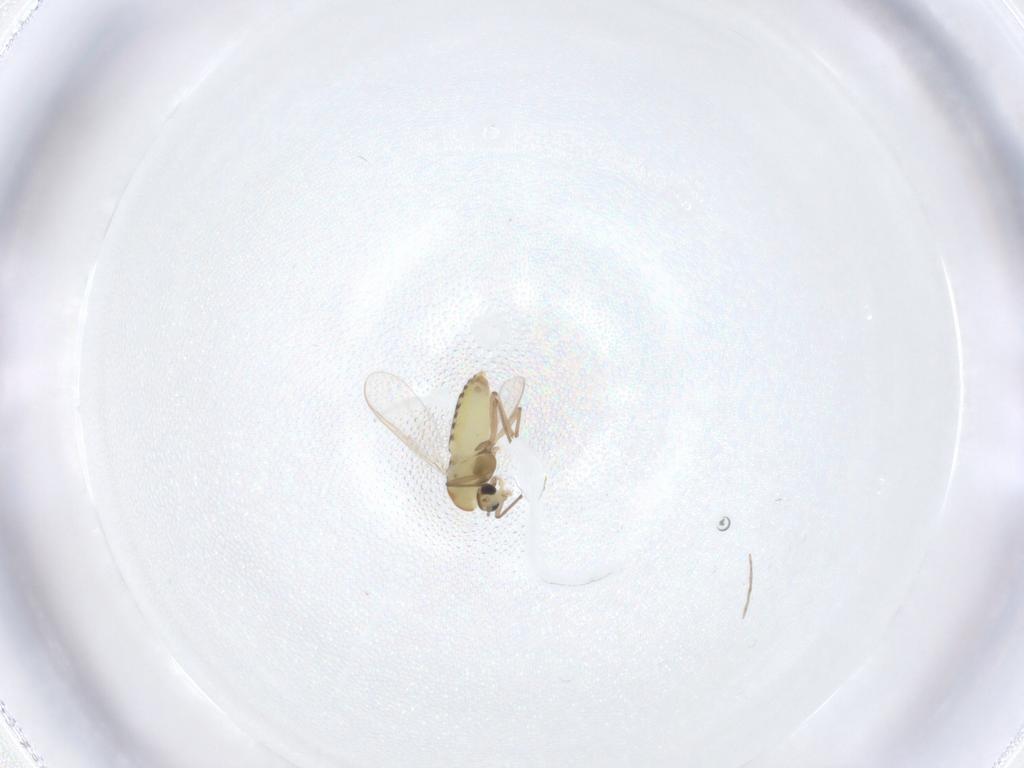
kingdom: Animalia
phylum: Arthropoda
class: Insecta
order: Diptera
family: Chironomidae
